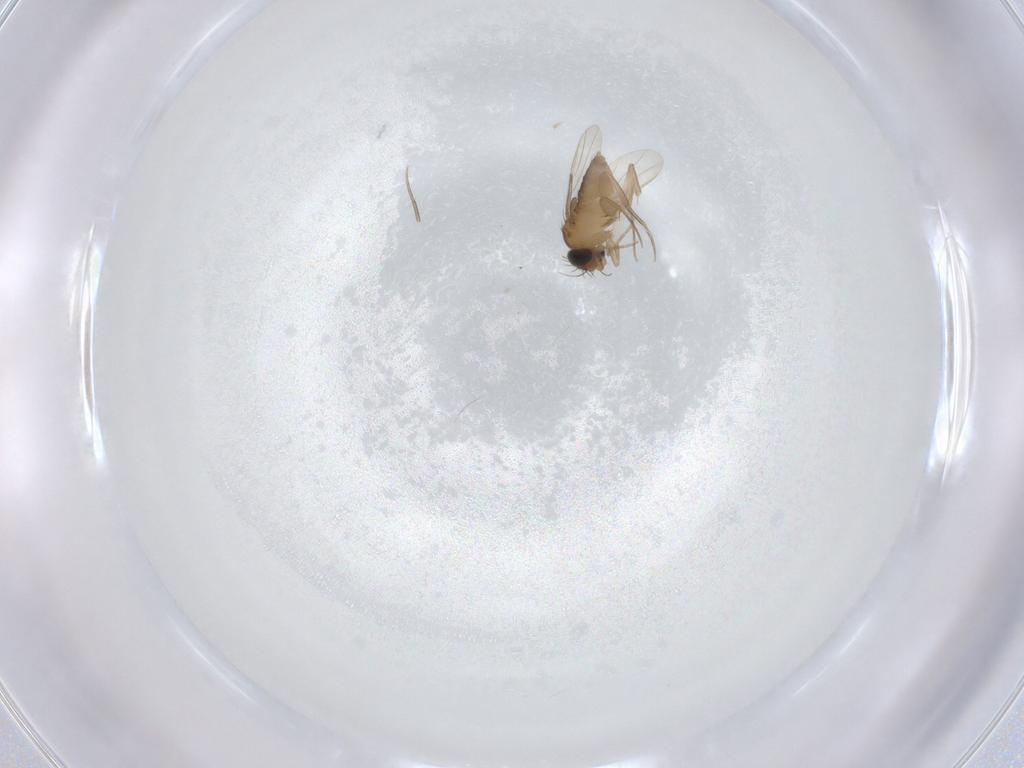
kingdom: Animalia
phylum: Arthropoda
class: Insecta
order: Diptera
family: Phoridae
